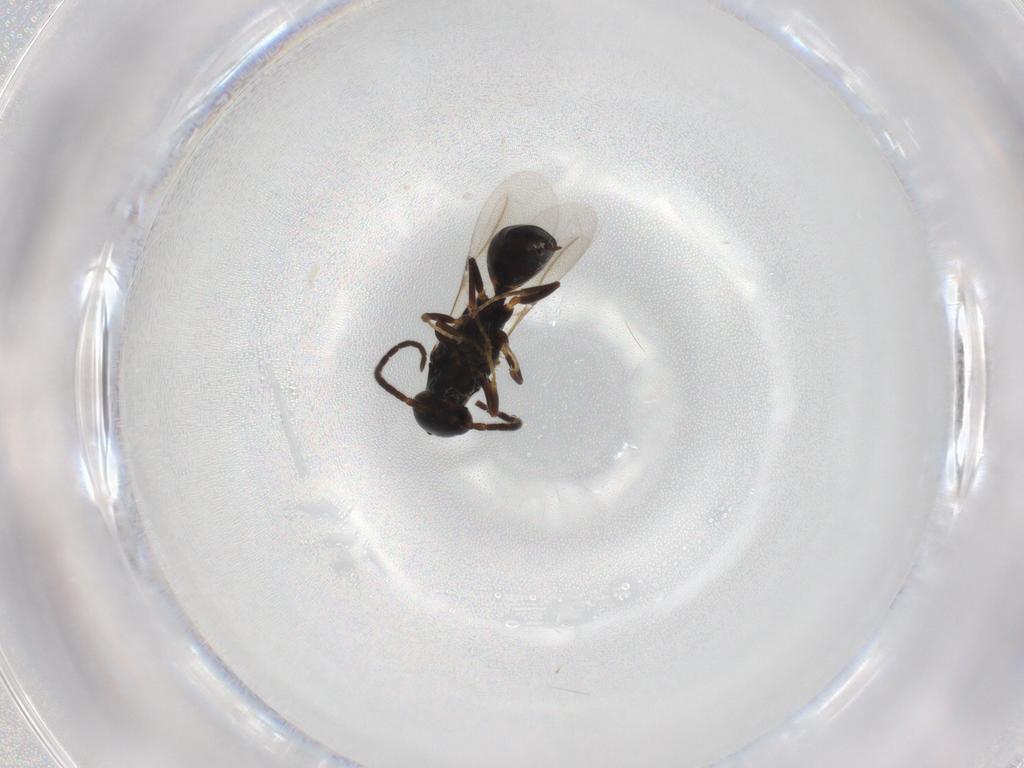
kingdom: Animalia
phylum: Arthropoda
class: Insecta
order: Hymenoptera
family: Bethylidae
